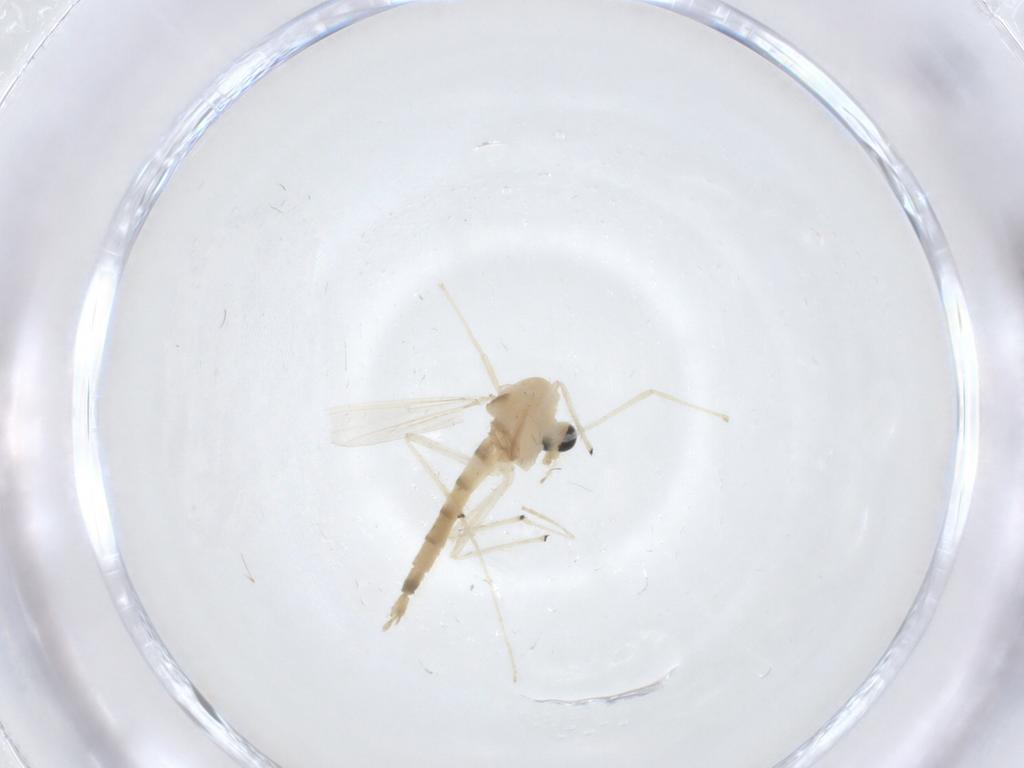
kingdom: Animalia
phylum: Arthropoda
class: Insecta
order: Diptera
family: Chironomidae
